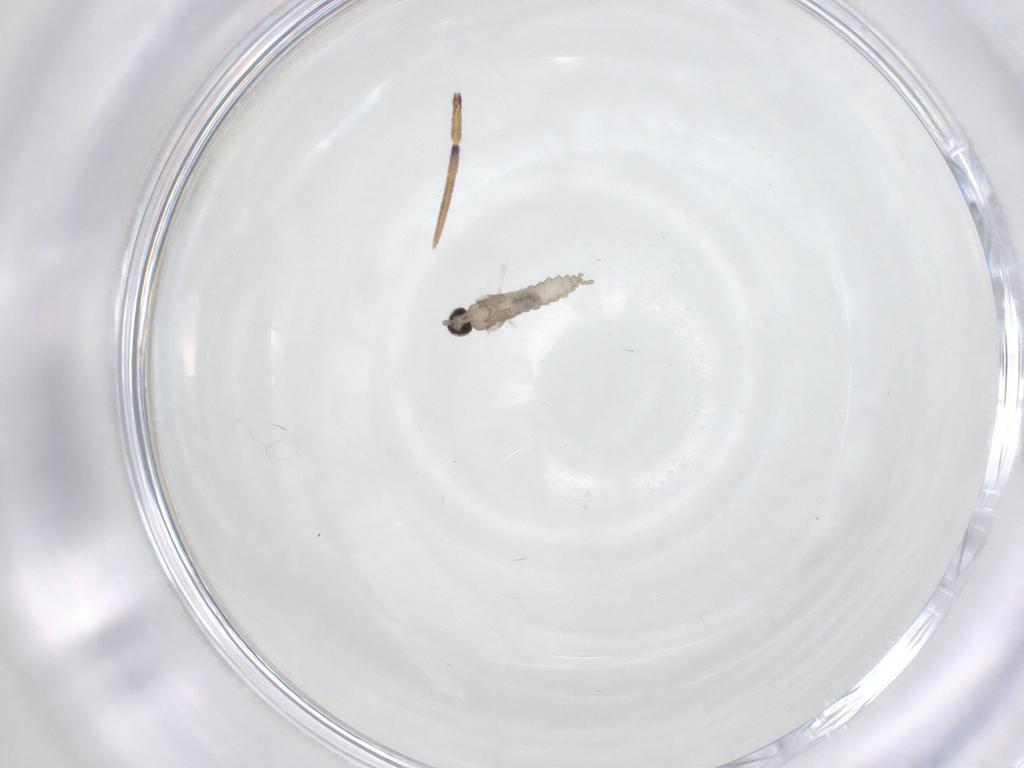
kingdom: Animalia
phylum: Arthropoda
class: Insecta
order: Diptera
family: Cecidomyiidae
